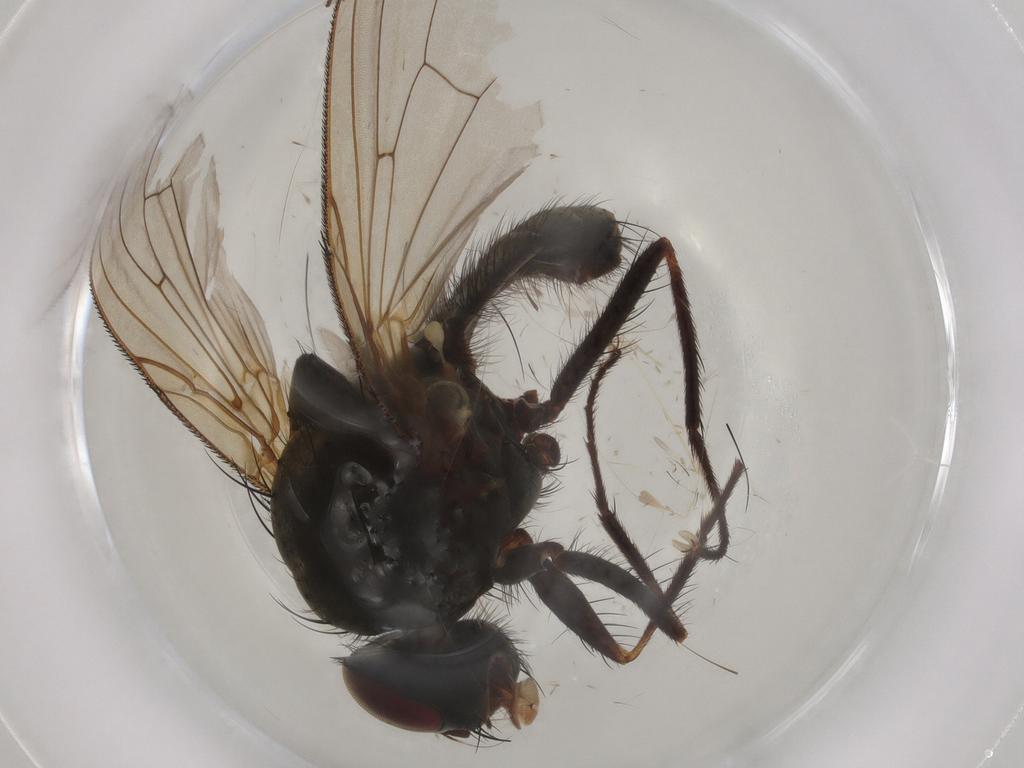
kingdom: Animalia
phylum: Arthropoda
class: Insecta
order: Diptera
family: Anthomyiidae
